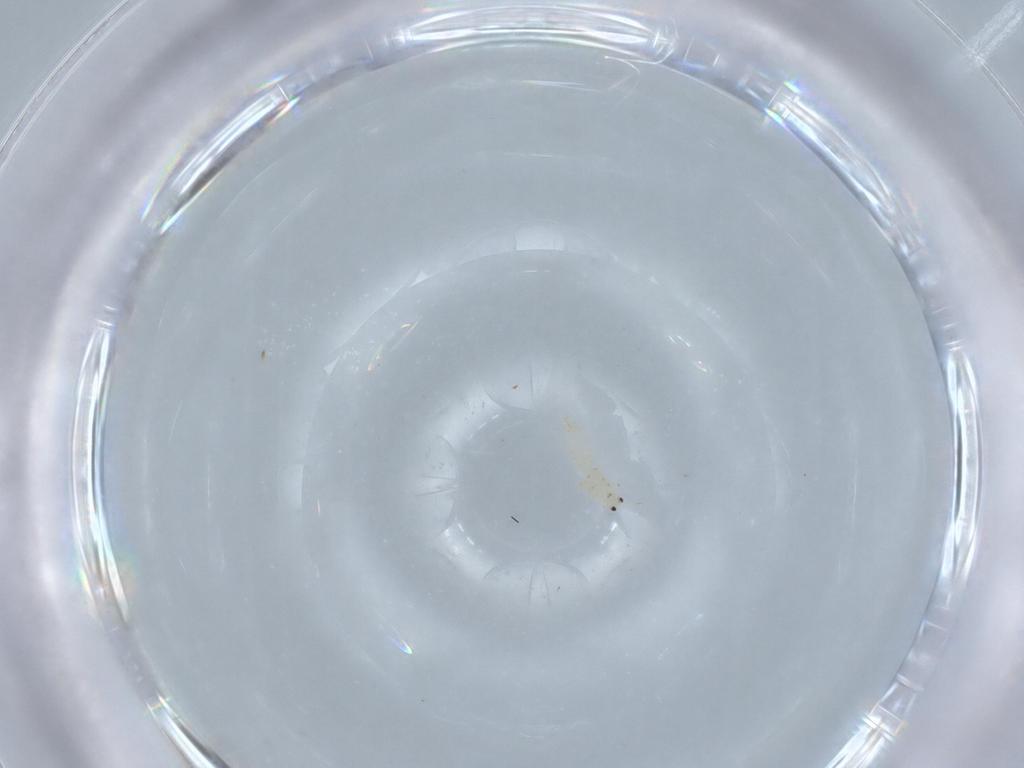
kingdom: Animalia
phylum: Arthropoda
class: Insecta
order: Thysanoptera
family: Thripidae
